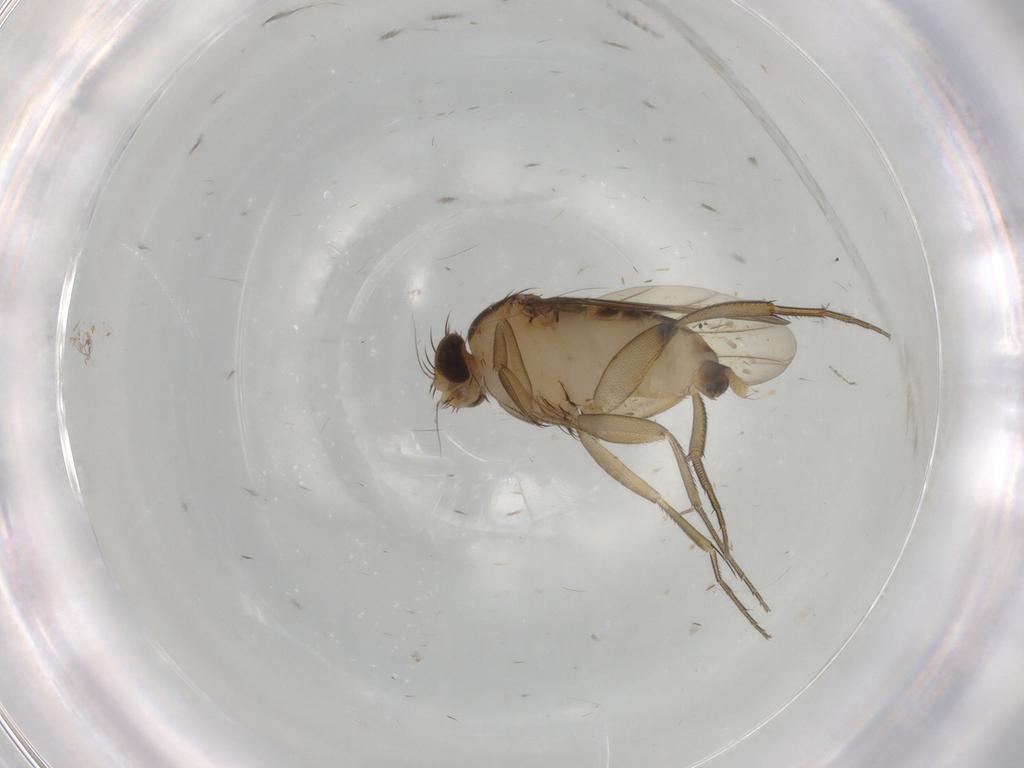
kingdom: Animalia
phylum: Arthropoda
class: Insecta
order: Diptera
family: Phoridae
